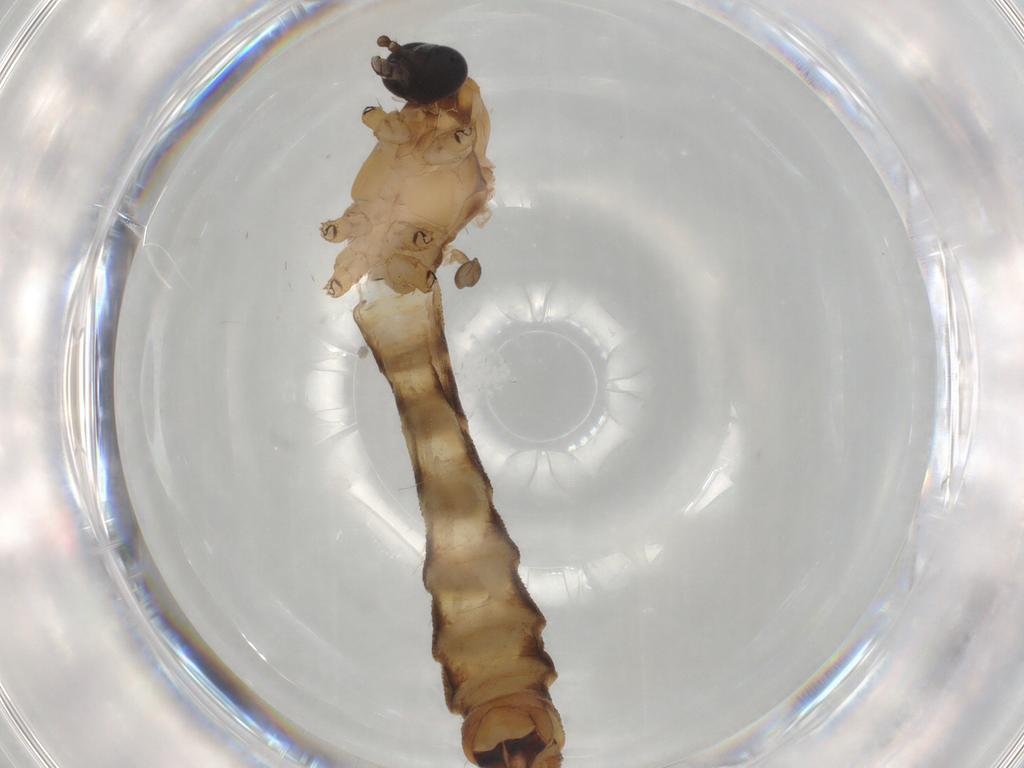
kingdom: Animalia
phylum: Arthropoda
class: Insecta
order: Diptera
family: Limoniidae
